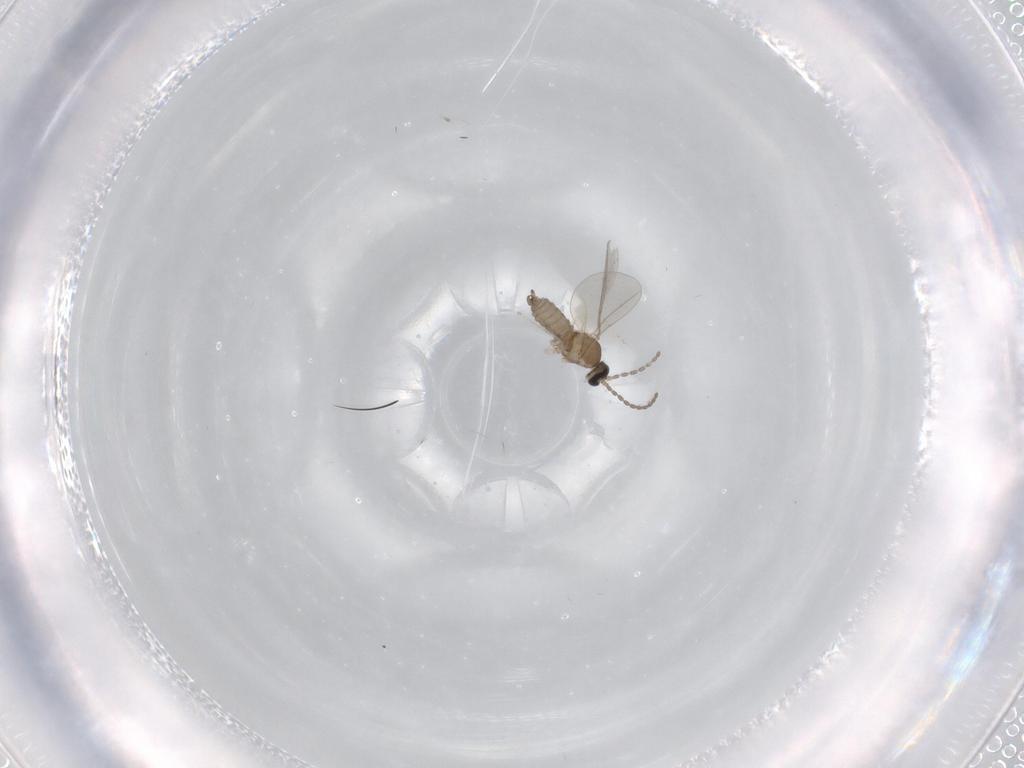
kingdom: Animalia
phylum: Arthropoda
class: Insecta
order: Diptera
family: Cecidomyiidae
